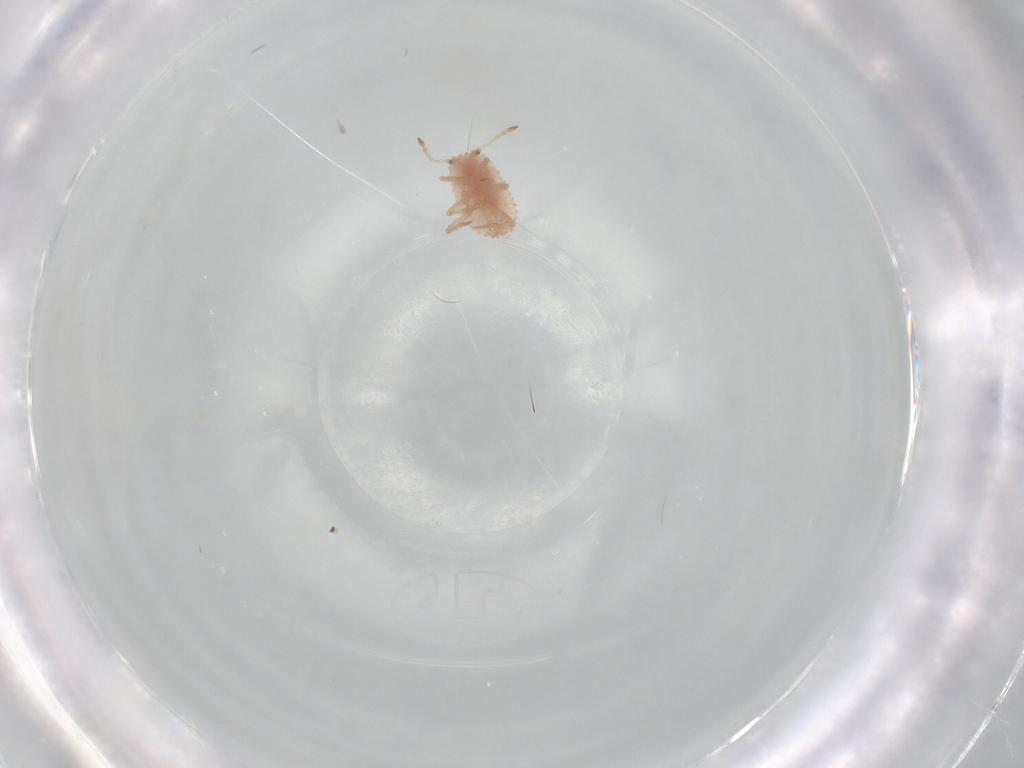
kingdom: Animalia
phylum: Arthropoda
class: Insecta
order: Hemiptera
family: Coccoidea_incertae_sedis
